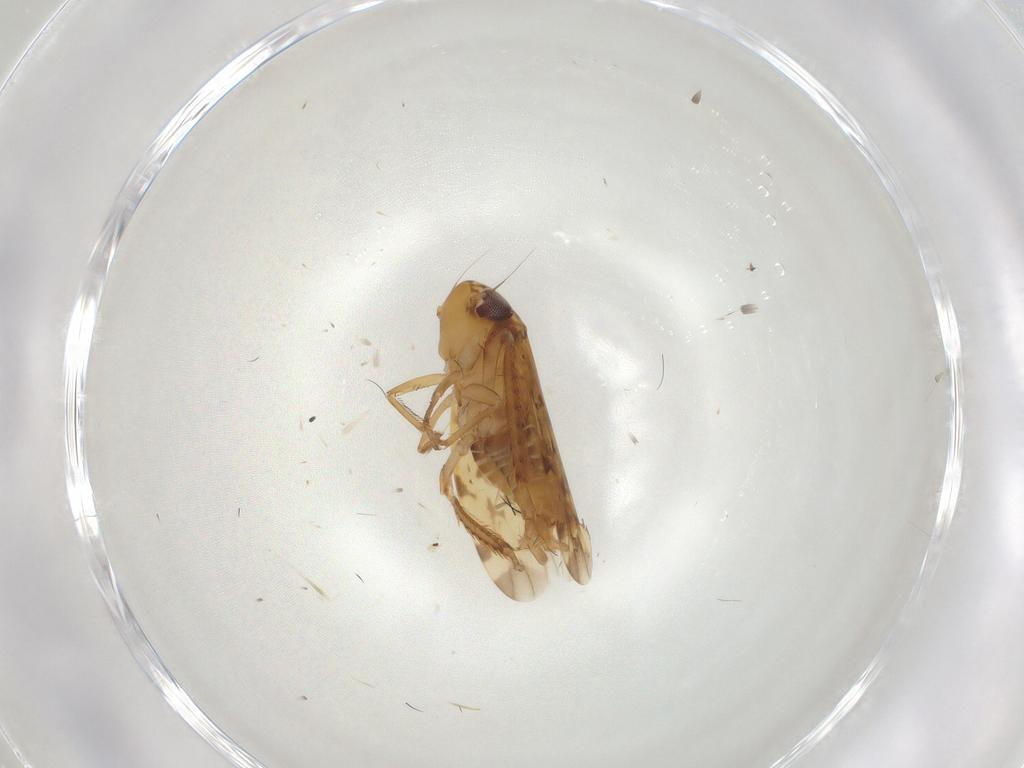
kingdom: Animalia
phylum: Arthropoda
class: Insecta
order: Hemiptera
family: Cicadellidae
